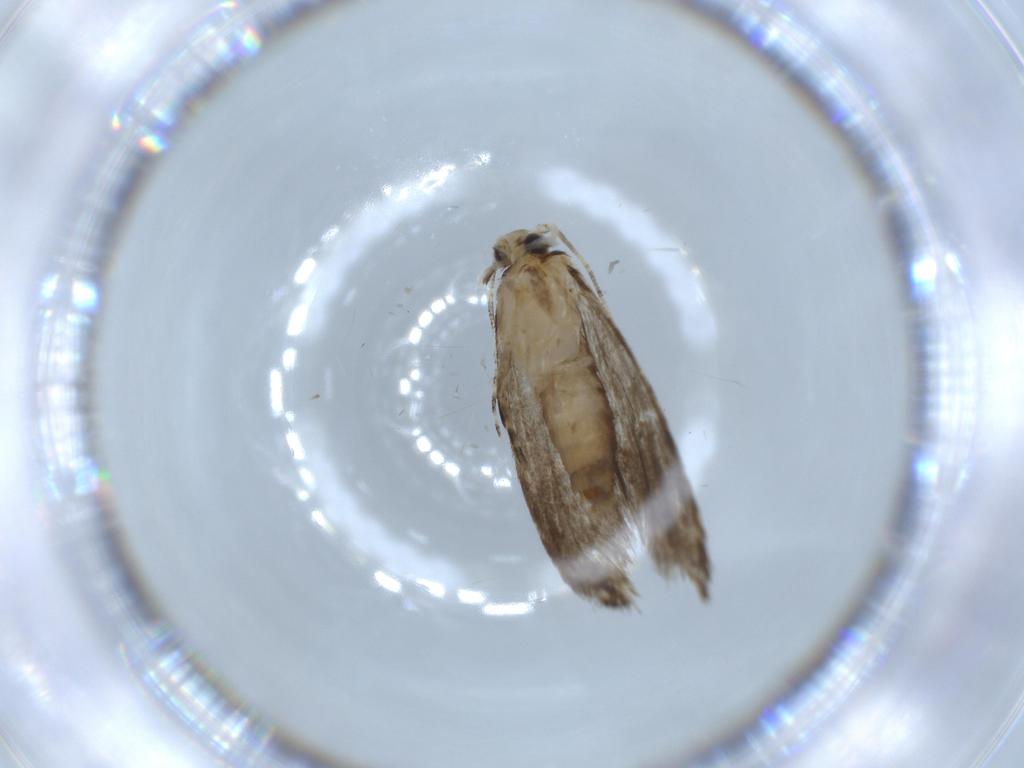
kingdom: Animalia
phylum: Arthropoda
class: Insecta
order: Lepidoptera
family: Tineidae
